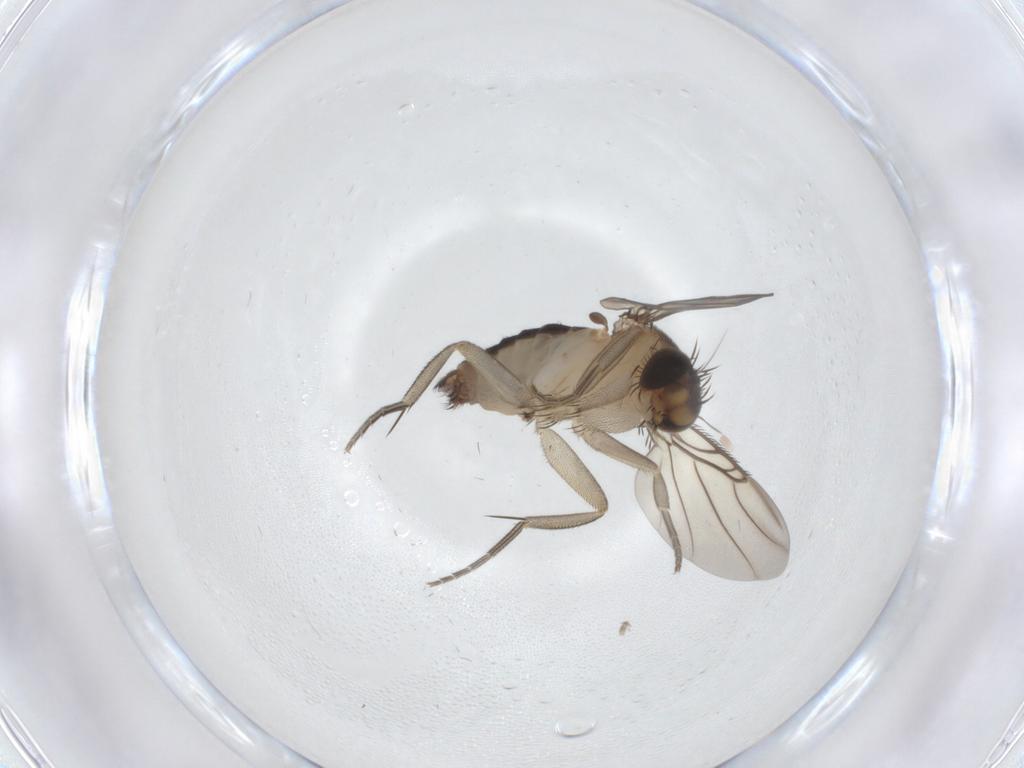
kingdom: Animalia
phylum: Arthropoda
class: Insecta
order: Diptera
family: Phoridae
